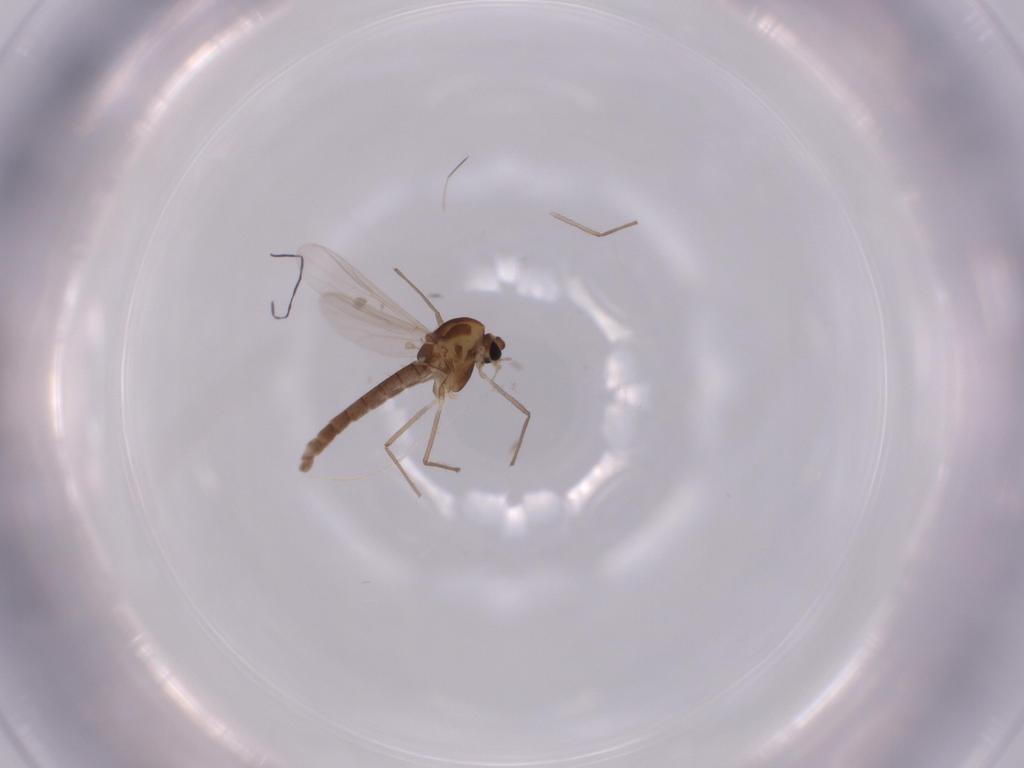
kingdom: Animalia
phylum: Arthropoda
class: Insecta
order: Diptera
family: Chironomidae
